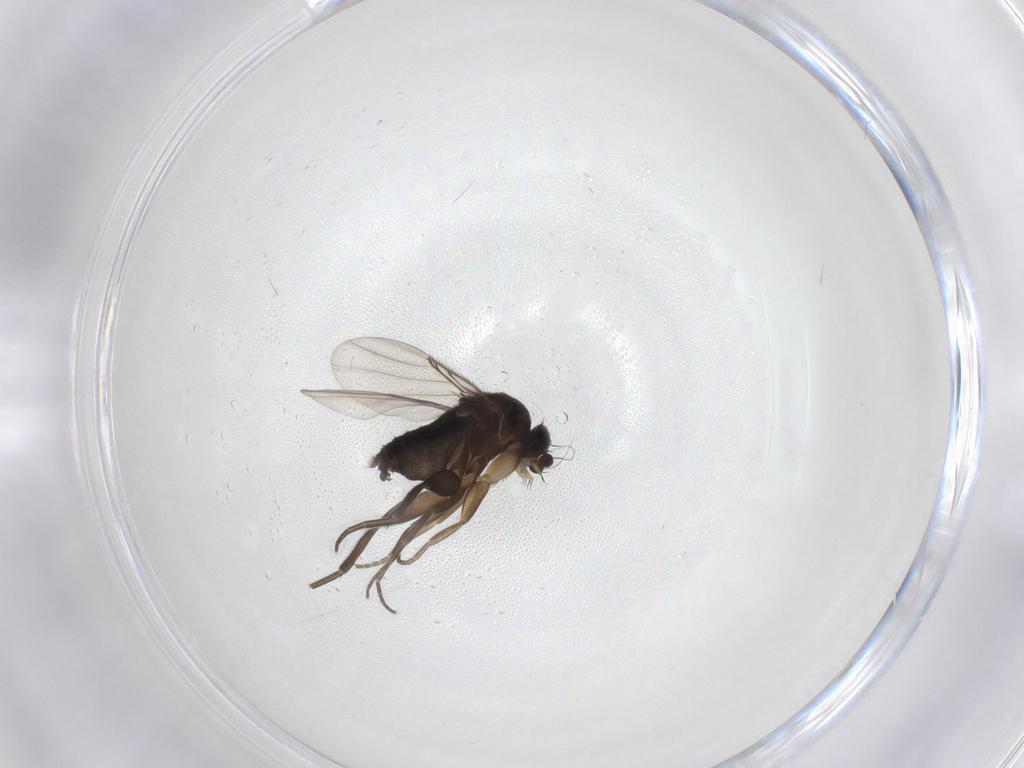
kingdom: Animalia
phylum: Arthropoda
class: Insecta
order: Diptera
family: Phoridae
